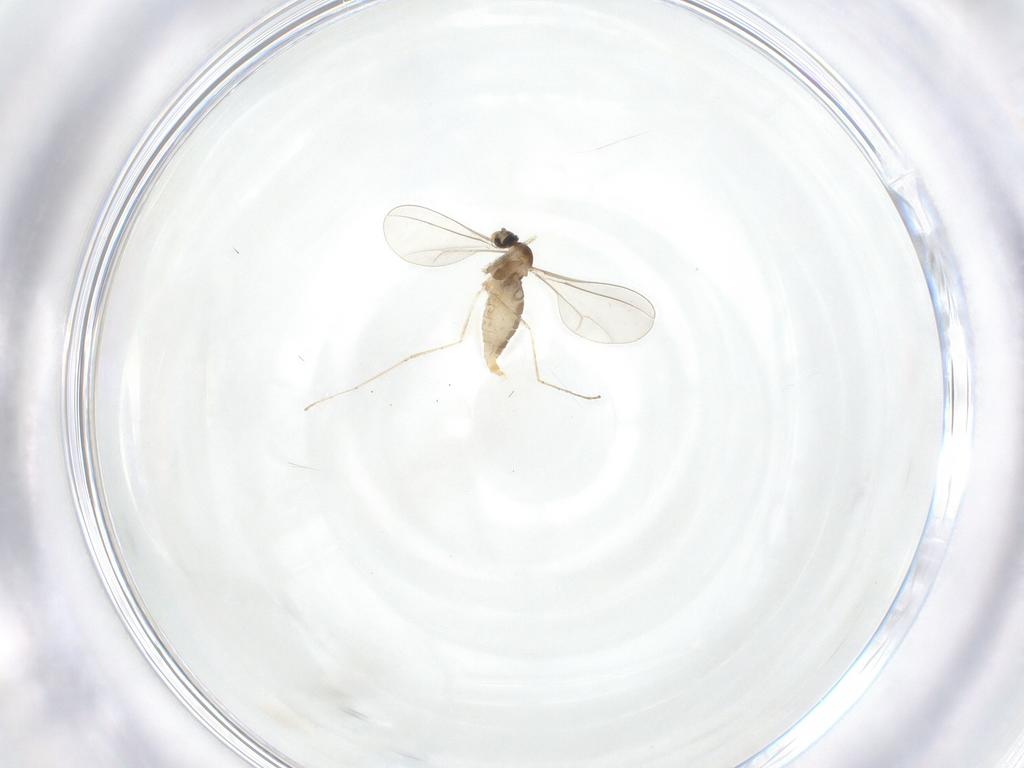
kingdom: Animalia
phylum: Arthropoda
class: Insecta
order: Diptera
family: Cecidomyiidae
